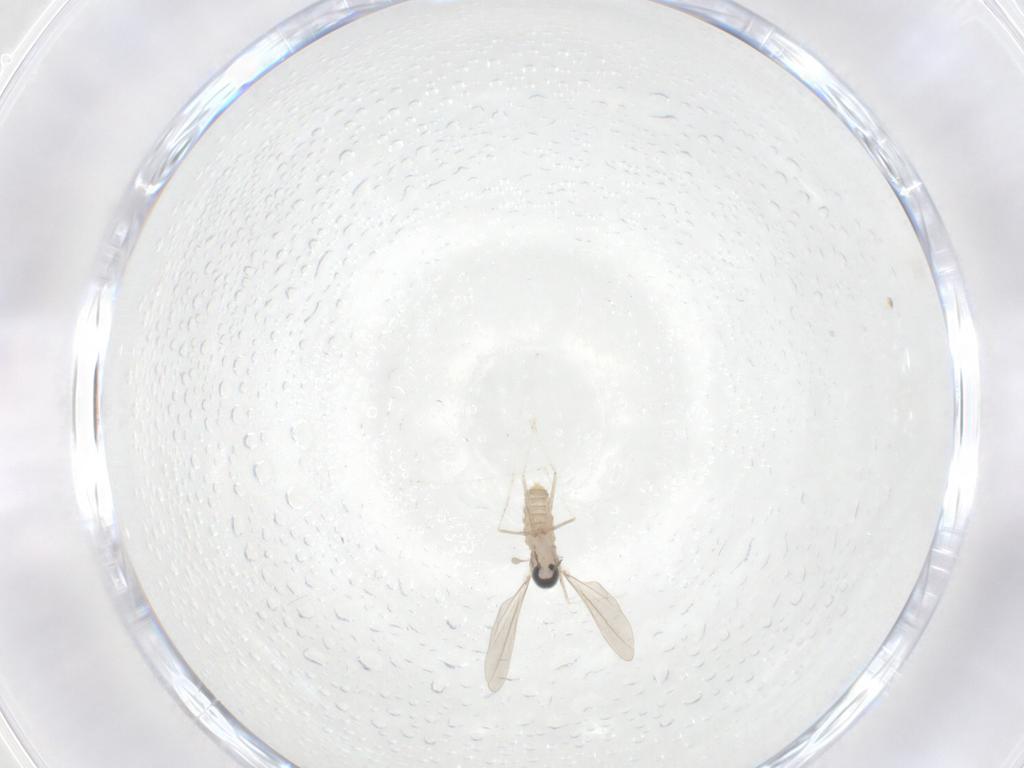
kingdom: Animalia
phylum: Arthropoda
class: Insecta
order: Diptera
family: Cecidomyiidae
